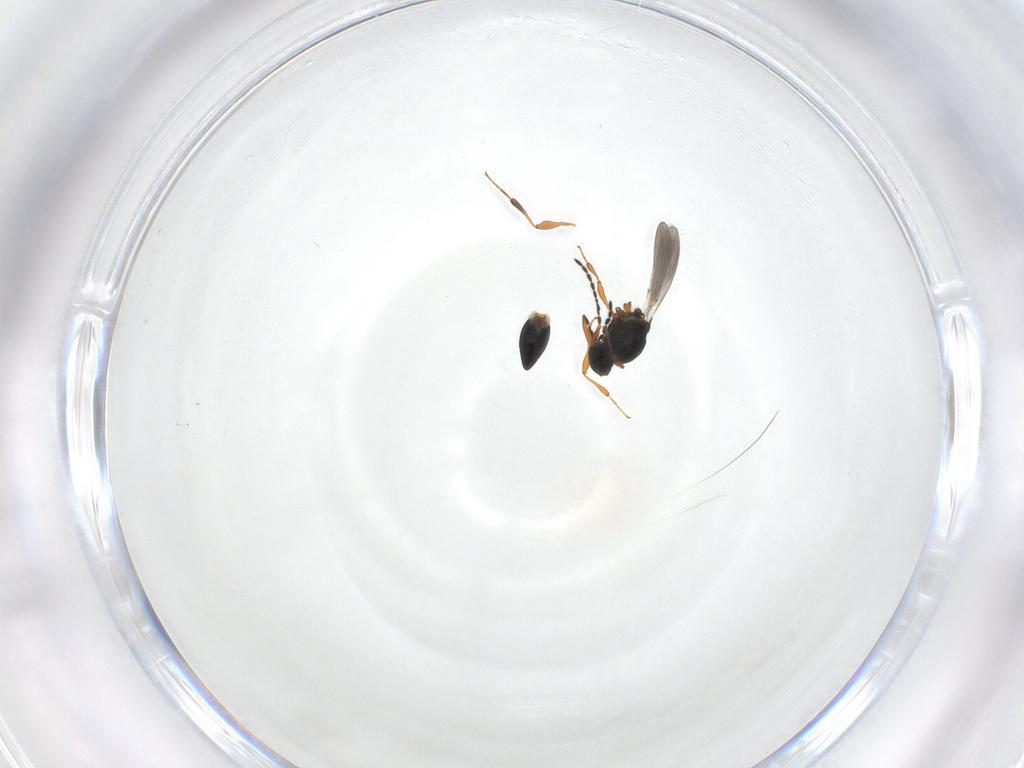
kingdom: Animalia
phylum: Arthropoda
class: Insecta
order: Hymenoptera
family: Platygastridae
